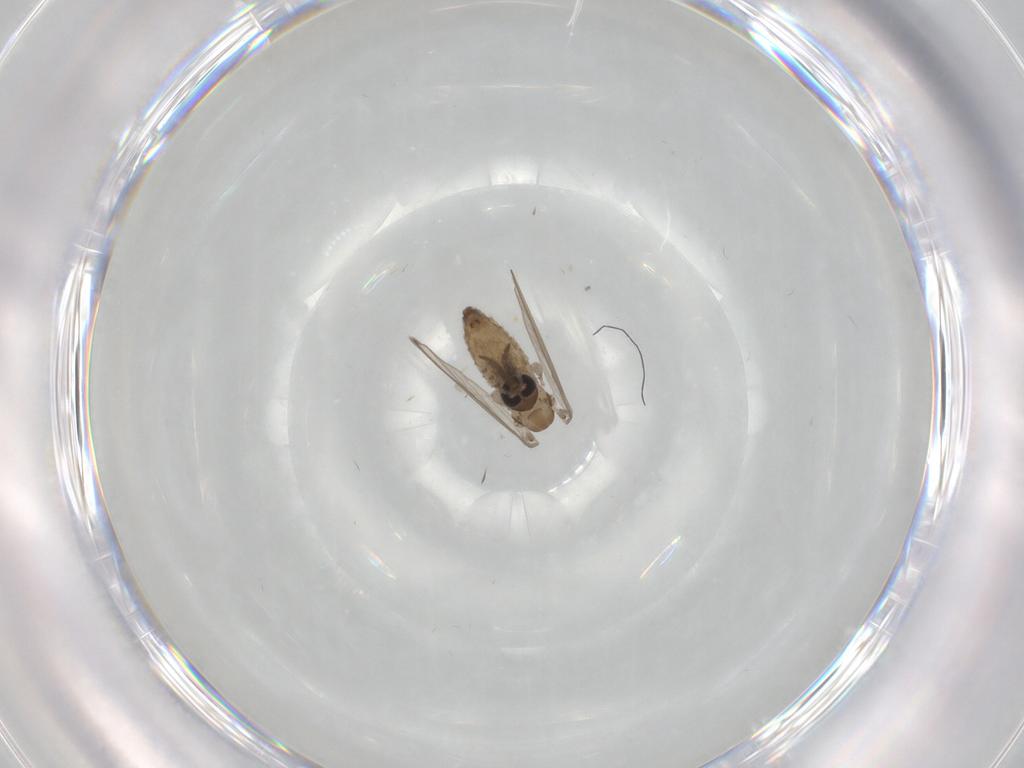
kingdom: Animalia
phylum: Arthropoda
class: Insecta
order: Diptera
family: Psychodidae
